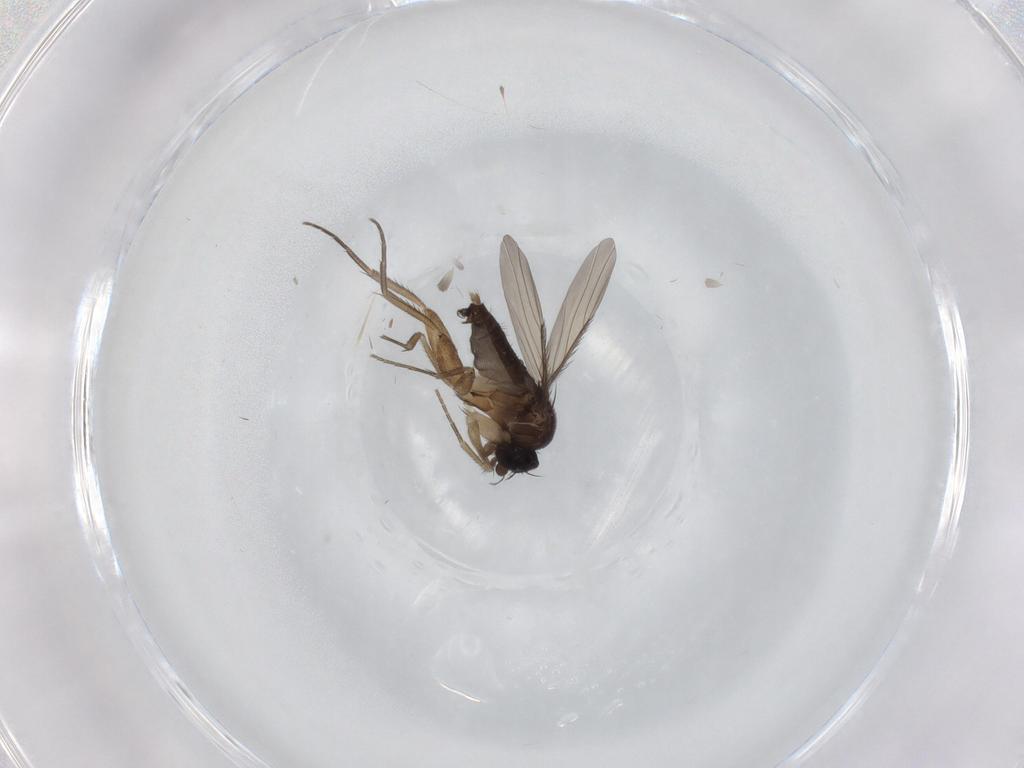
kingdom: Animalia
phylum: Arthropoda
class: Insecta
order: Diptera
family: Phoridae
